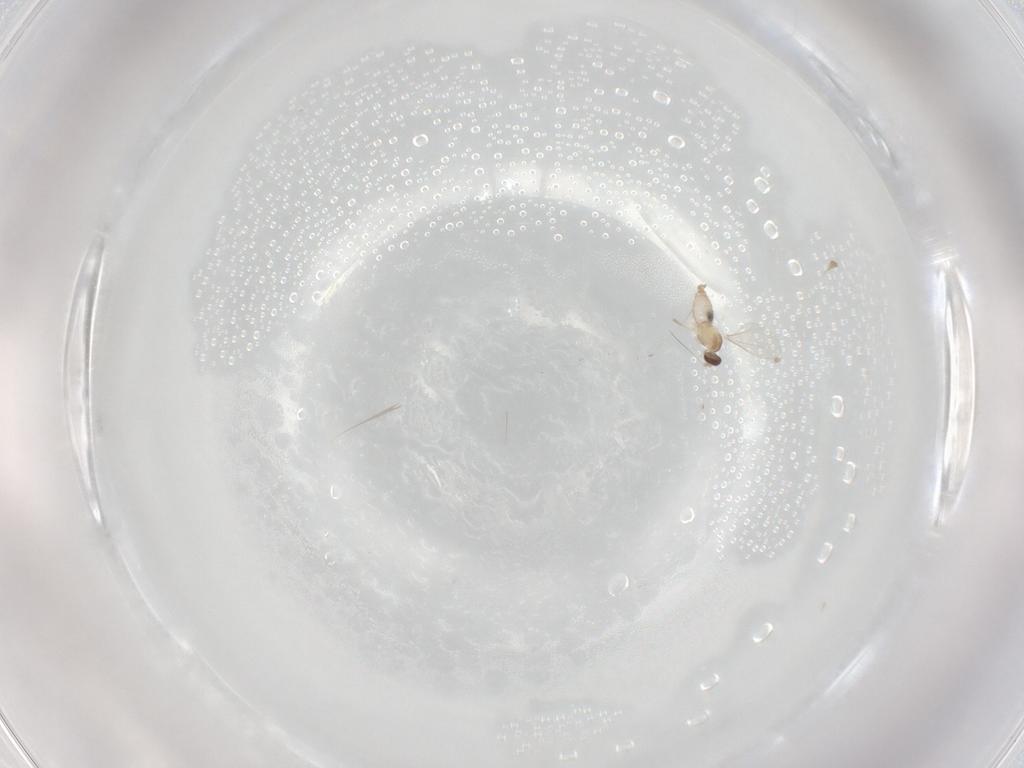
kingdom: Animalia
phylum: Arthropoda
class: Insecta
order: Diptera
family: Cecidomyiidae
